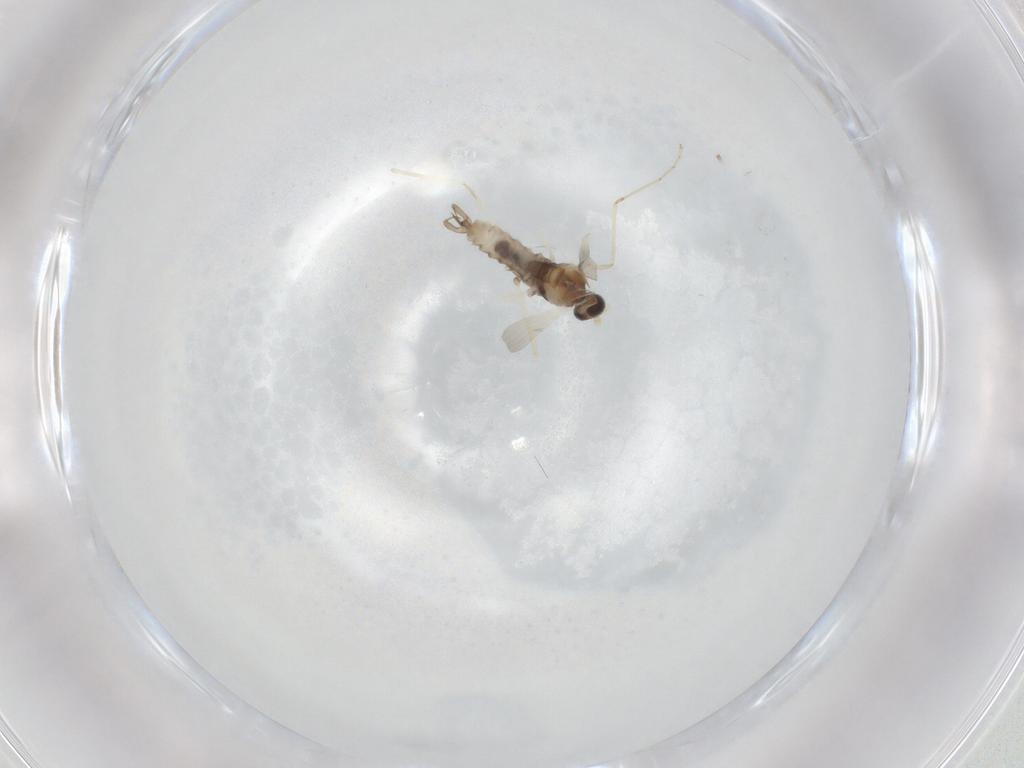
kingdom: Animalia
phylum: Arthropoda
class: Insecta
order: Diptera
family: Cecidomyiidae
